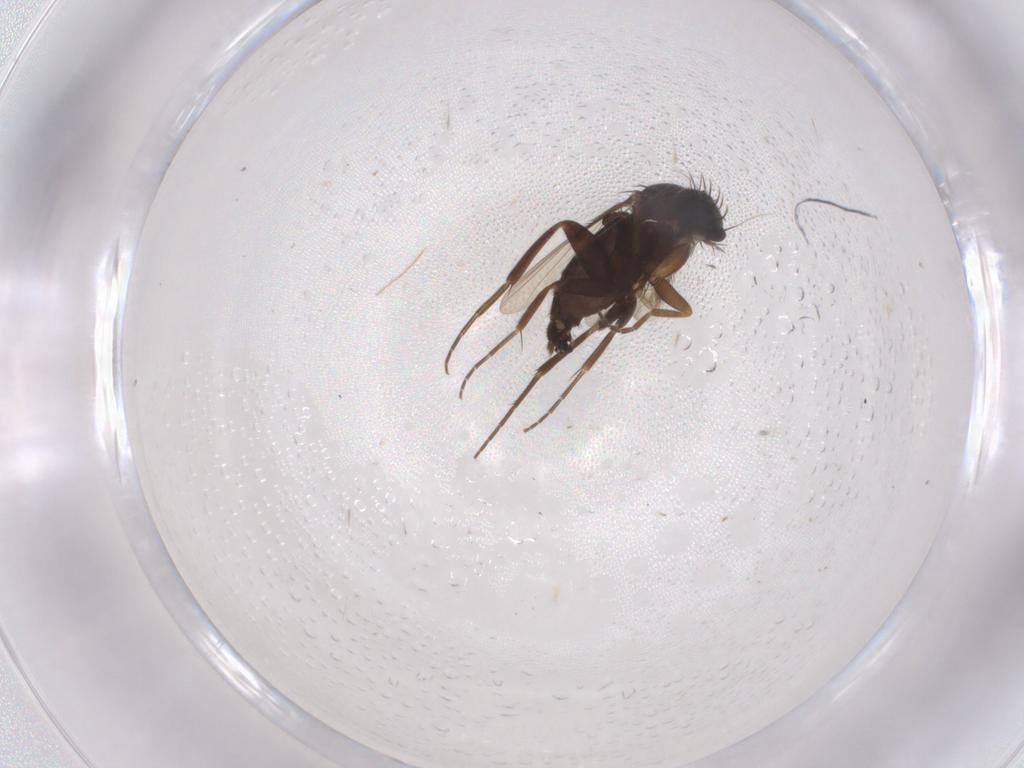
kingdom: Animalia
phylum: Arthropoda
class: Insecta
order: Diptera
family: Phoridae
